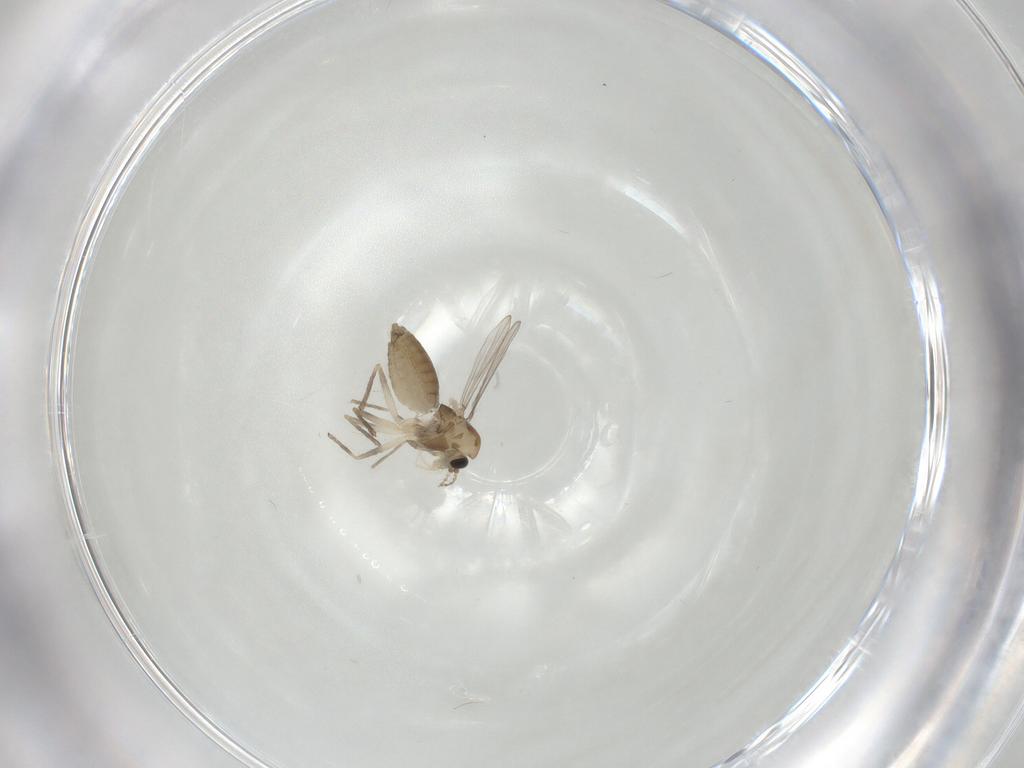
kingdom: Animalia
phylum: Arthropoda
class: Insecta
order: Diptera
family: Chironomidae
